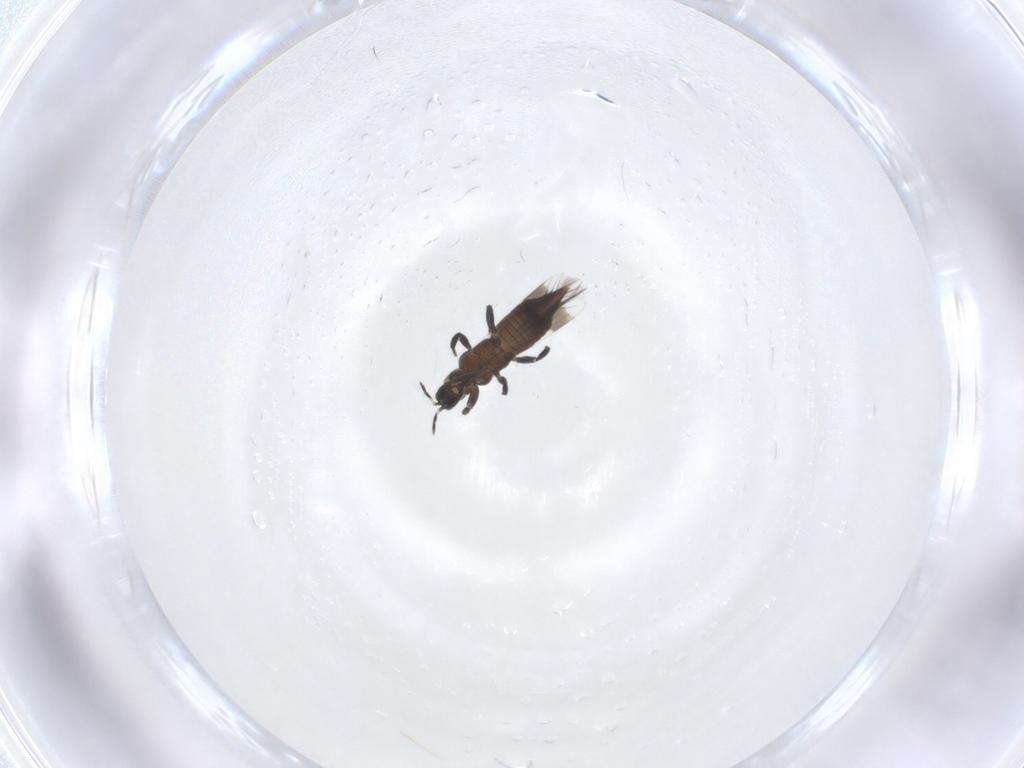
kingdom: Animalia
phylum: Arthropoda
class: Insecta
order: Thysanoptera
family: Aeolothripidae
